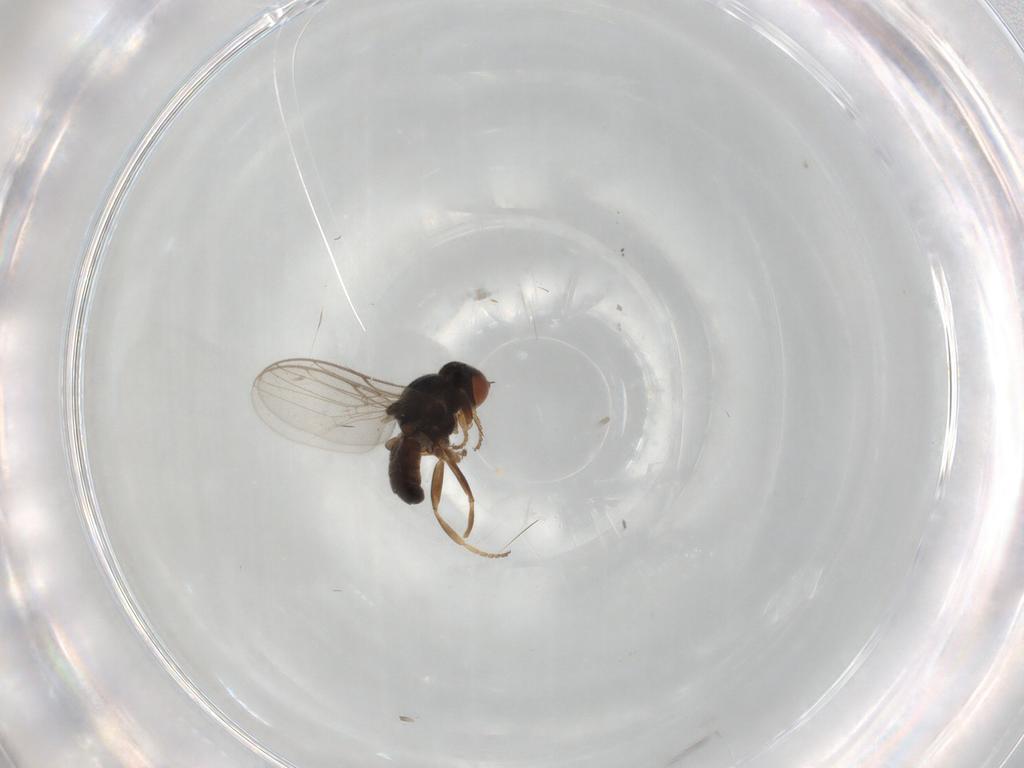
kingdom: Animalia
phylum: Arthropoda
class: Insecta
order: Diptera
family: Chloropidae
